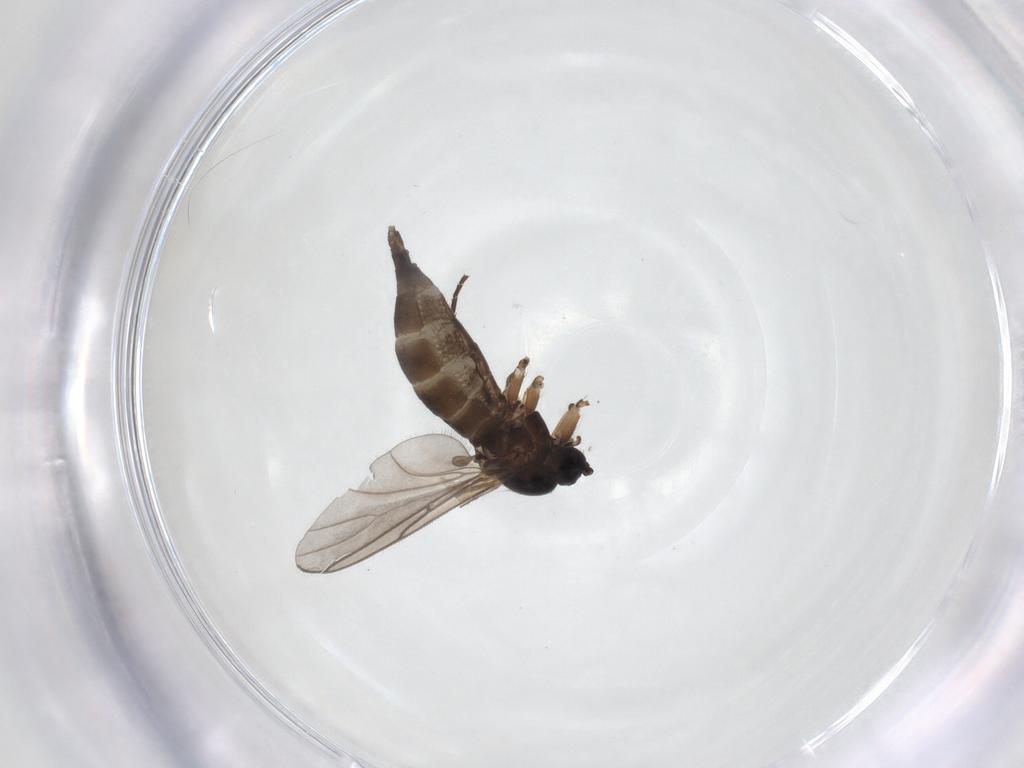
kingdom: Animalia
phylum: Arthropoda
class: Insecta
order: Diptera
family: Sciaridae
